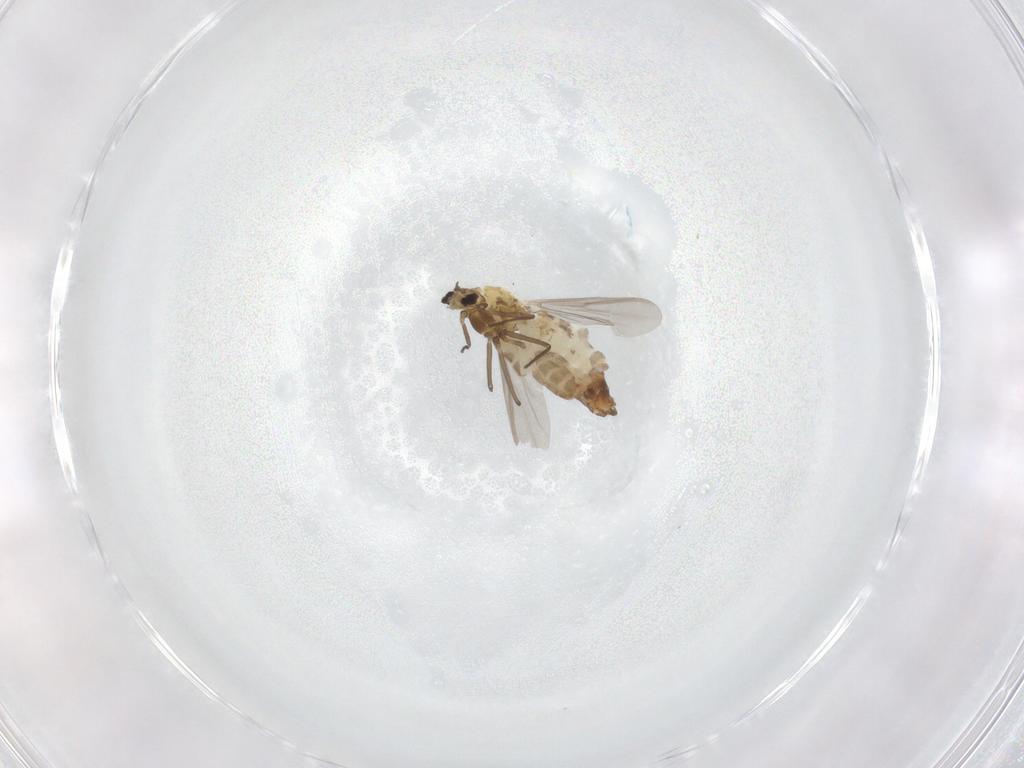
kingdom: Animalia
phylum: Arthropoda
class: Insecta
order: Diptera
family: Chironomidae
